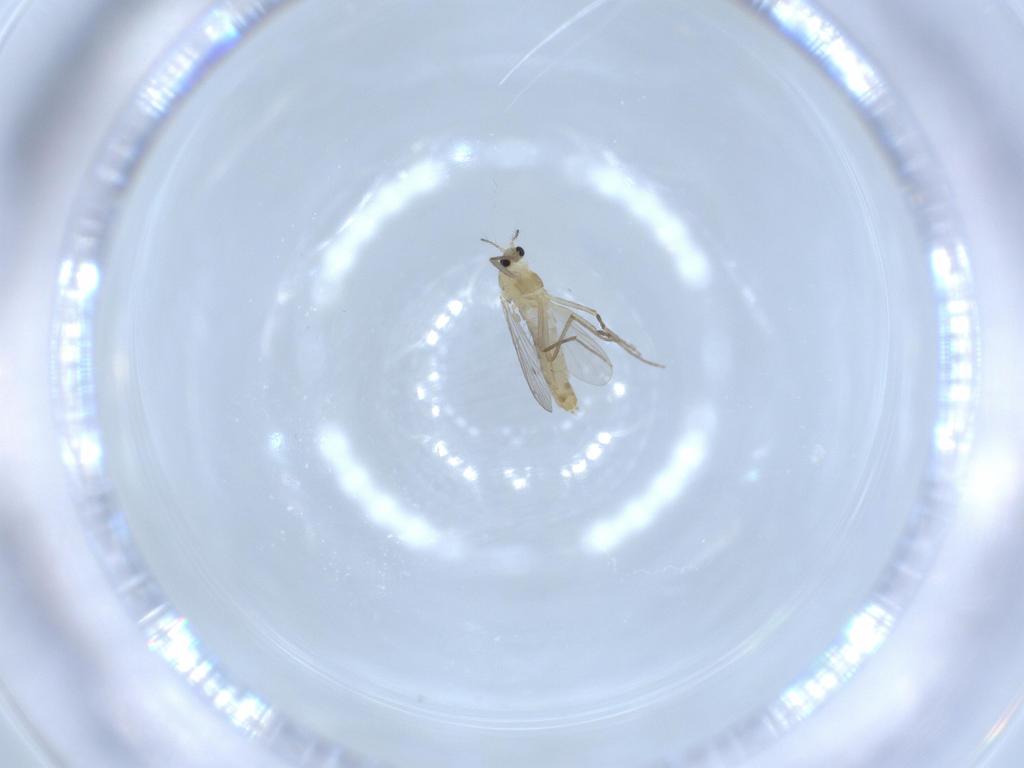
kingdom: Animalia
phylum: Arthropoda
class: Insecta
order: Diptera
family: Chironomidae
